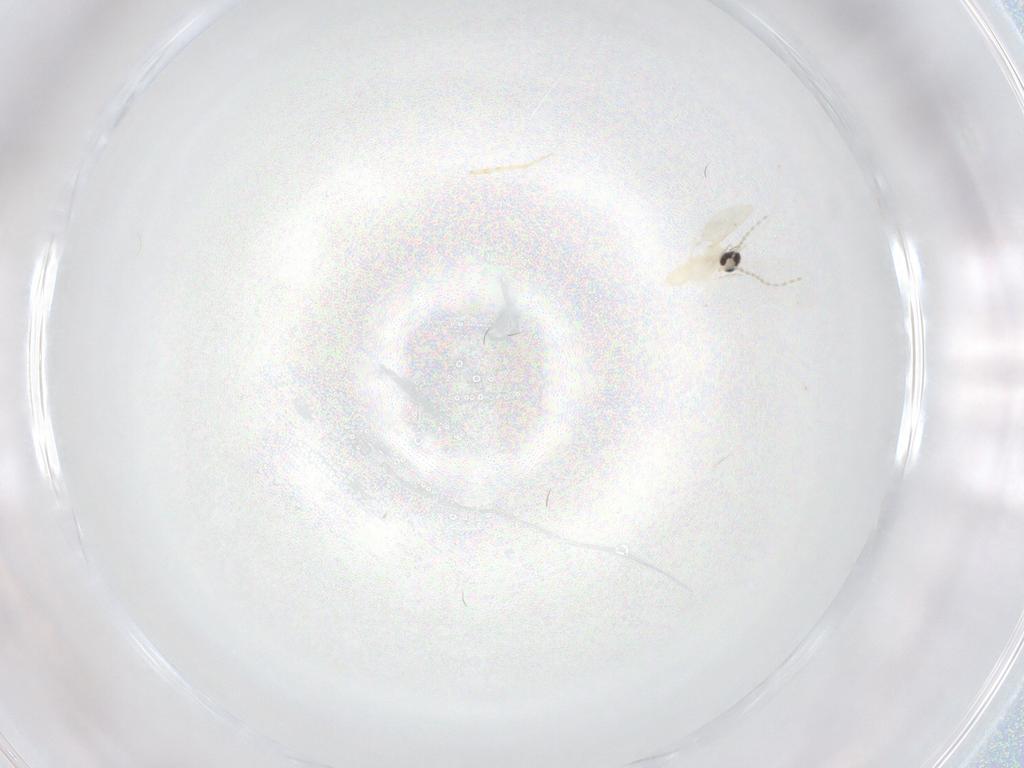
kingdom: Animalia
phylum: Arthropoda
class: Insecta
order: Diptera
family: Cecidomyiidae
